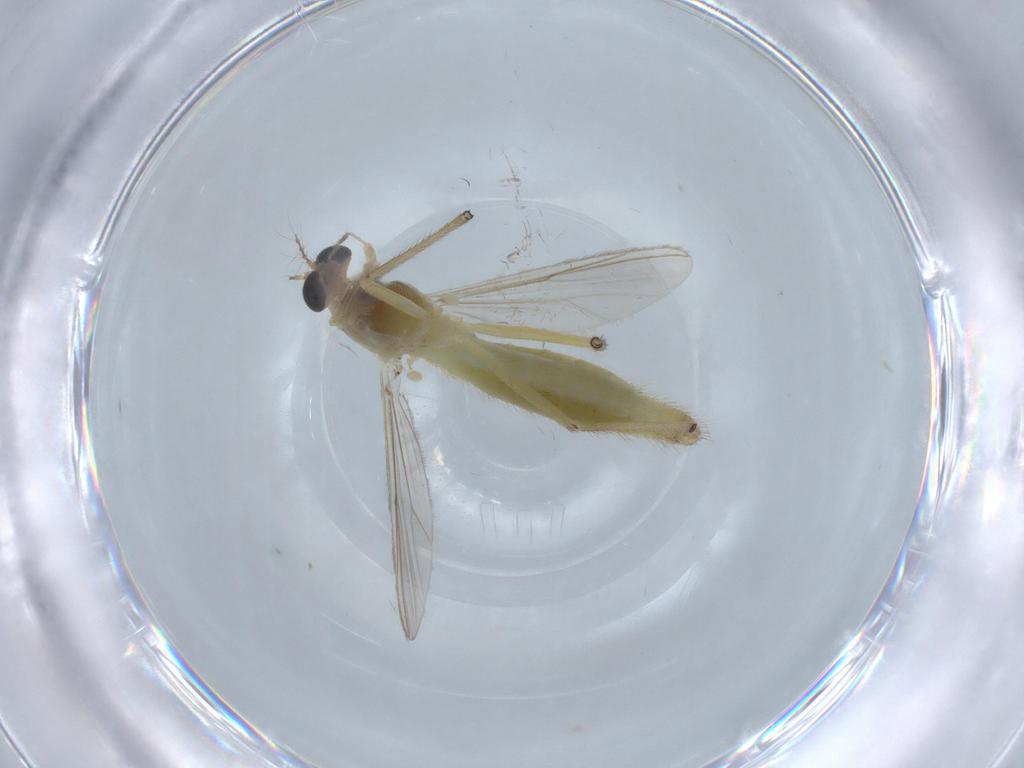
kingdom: Animalia
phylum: Arthropoda
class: Insecta
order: Diptera
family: Chironomidae
